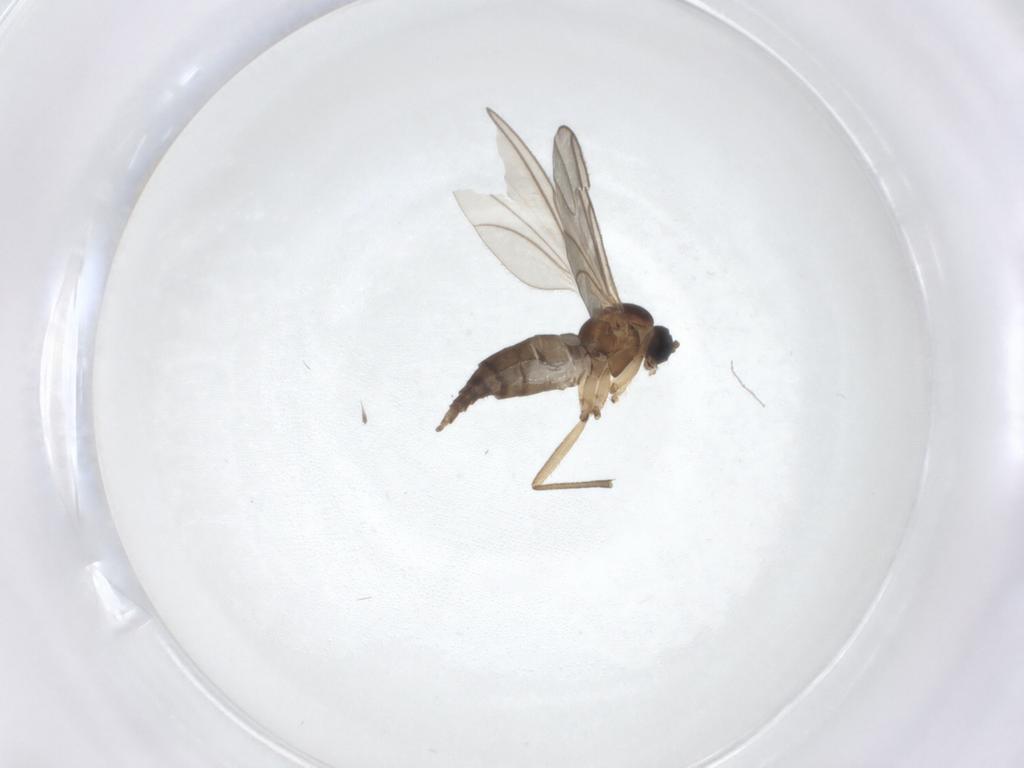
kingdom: Animalia
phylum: Arthropoda
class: Insecta
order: Diptera
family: Sciaridae
